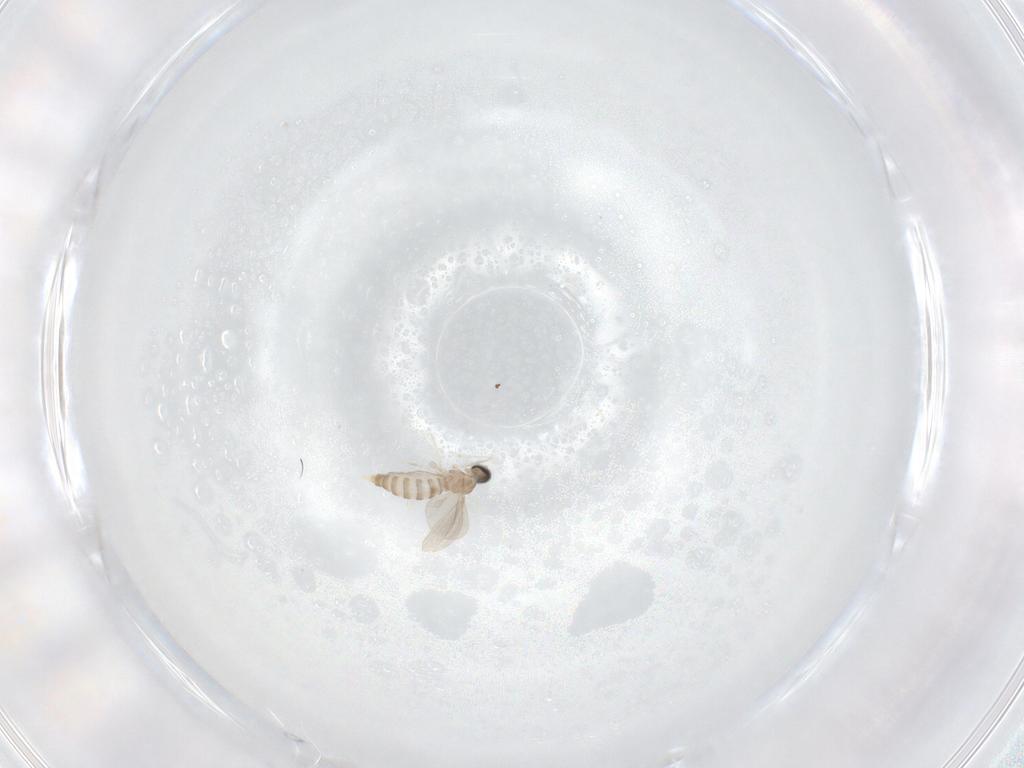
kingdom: Animalia
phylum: Arthropoda
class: Insecta
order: Diptera
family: Cecidomyiidae
